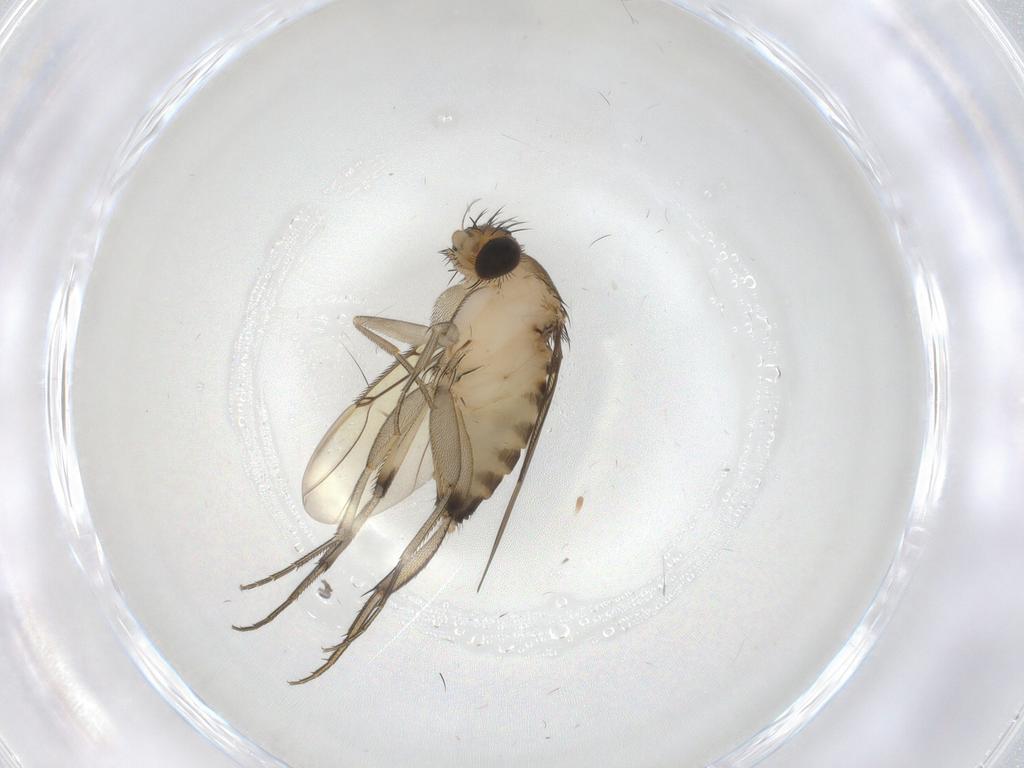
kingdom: Animalia
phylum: Arthropoda
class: Insecta
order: Diptera
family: Phoridae
